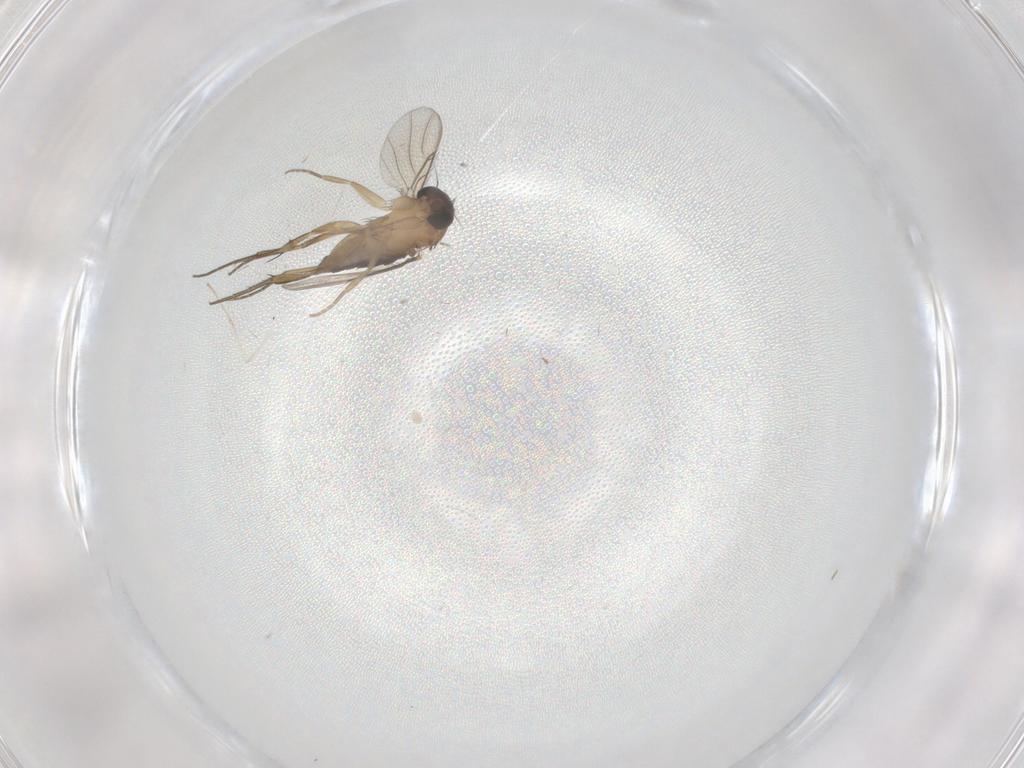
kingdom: Animalia
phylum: Arthropoda
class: Insecta
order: Diptera
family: Phoridae
